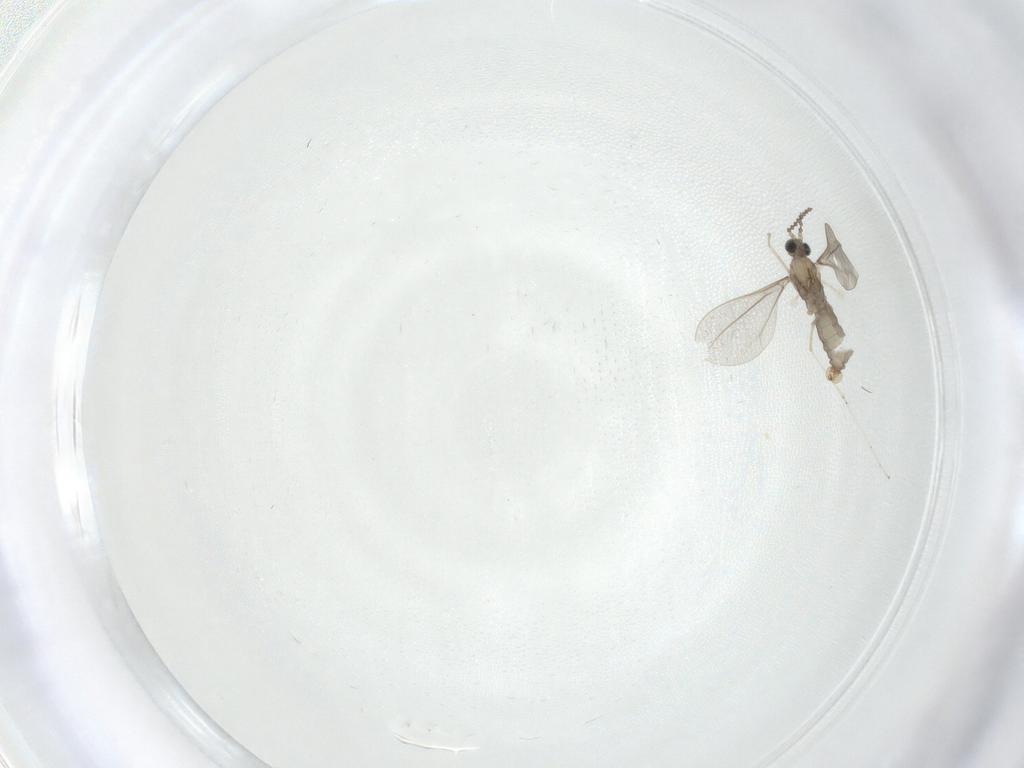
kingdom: Animalia
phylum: Arthropoda
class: Insecta
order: Diptera
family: Cecidomyiidae
